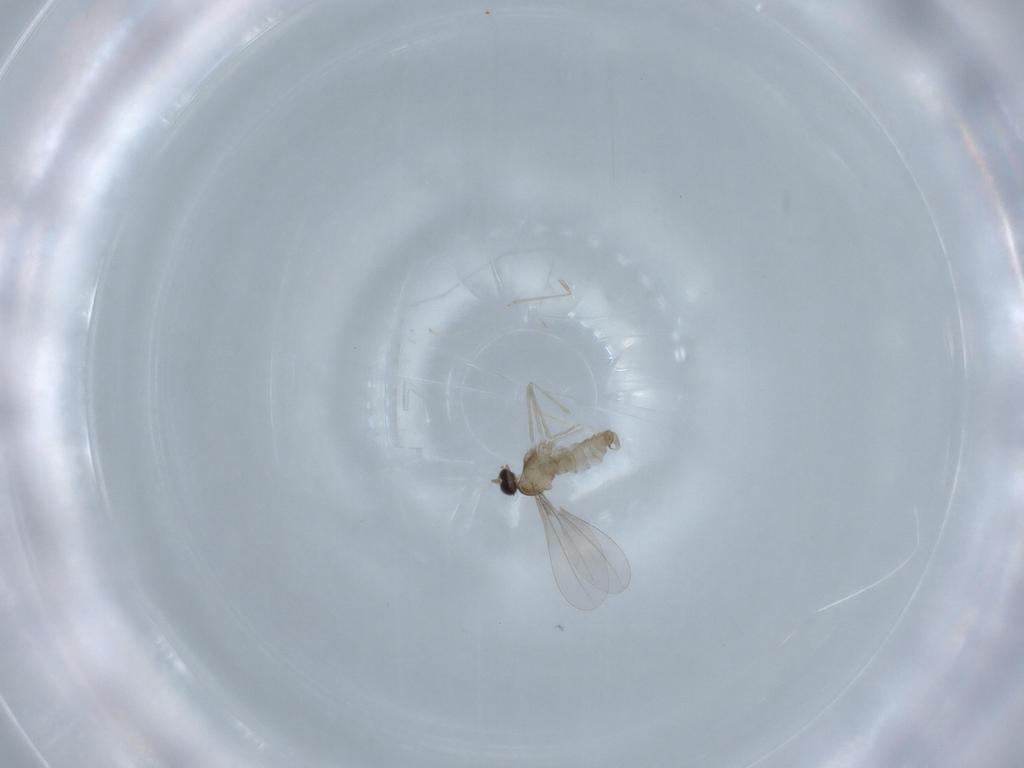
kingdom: Animalia
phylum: Arthropoda
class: Insecta
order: Diptera
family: Cecidomyiidae
